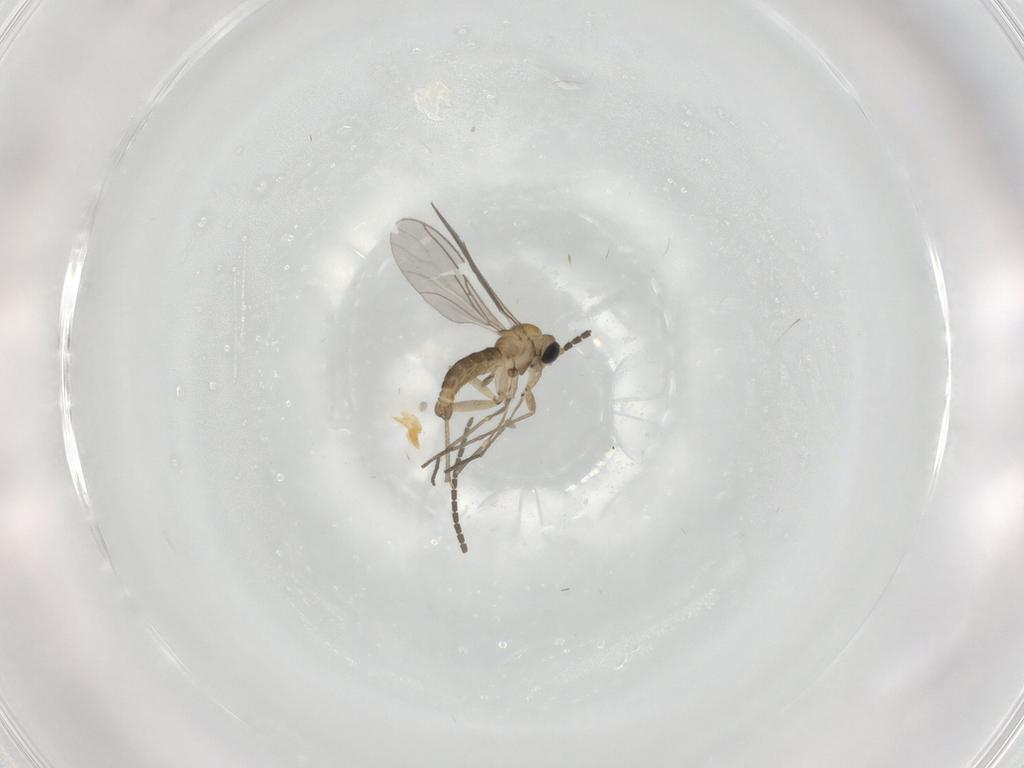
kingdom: Animalia
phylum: Arthropoda
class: Insecta
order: Diptera
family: Sciaridae
